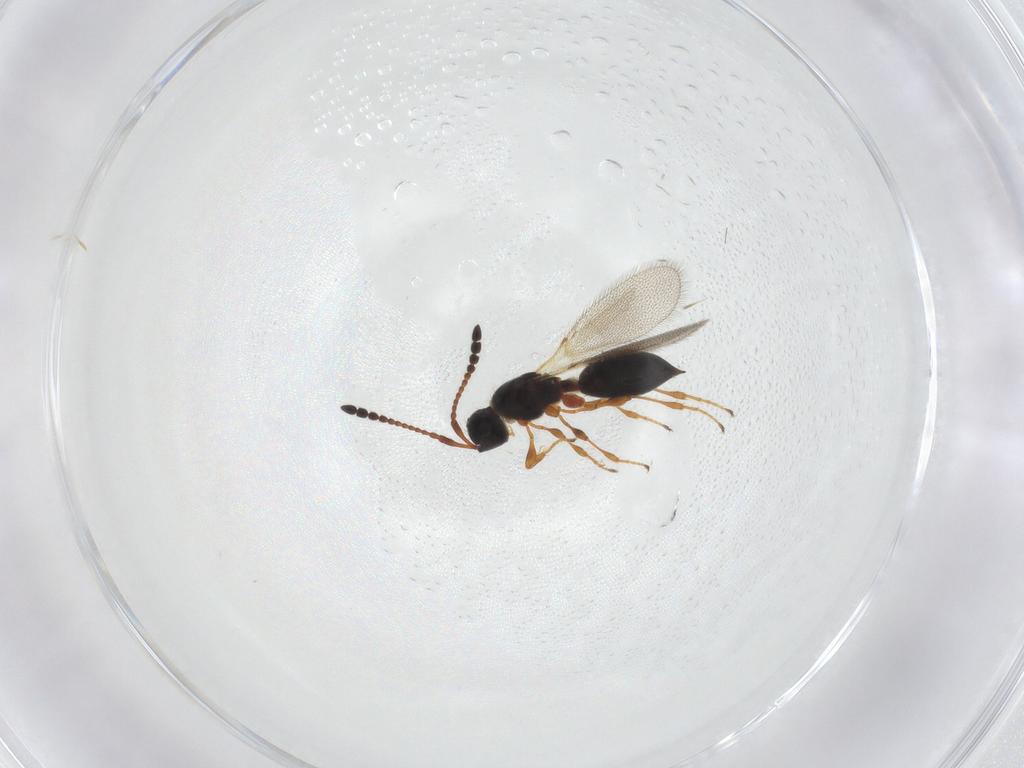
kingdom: Animalia
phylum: Arthropoda
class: Insecta
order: Hymenoptera
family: Diapriidae
